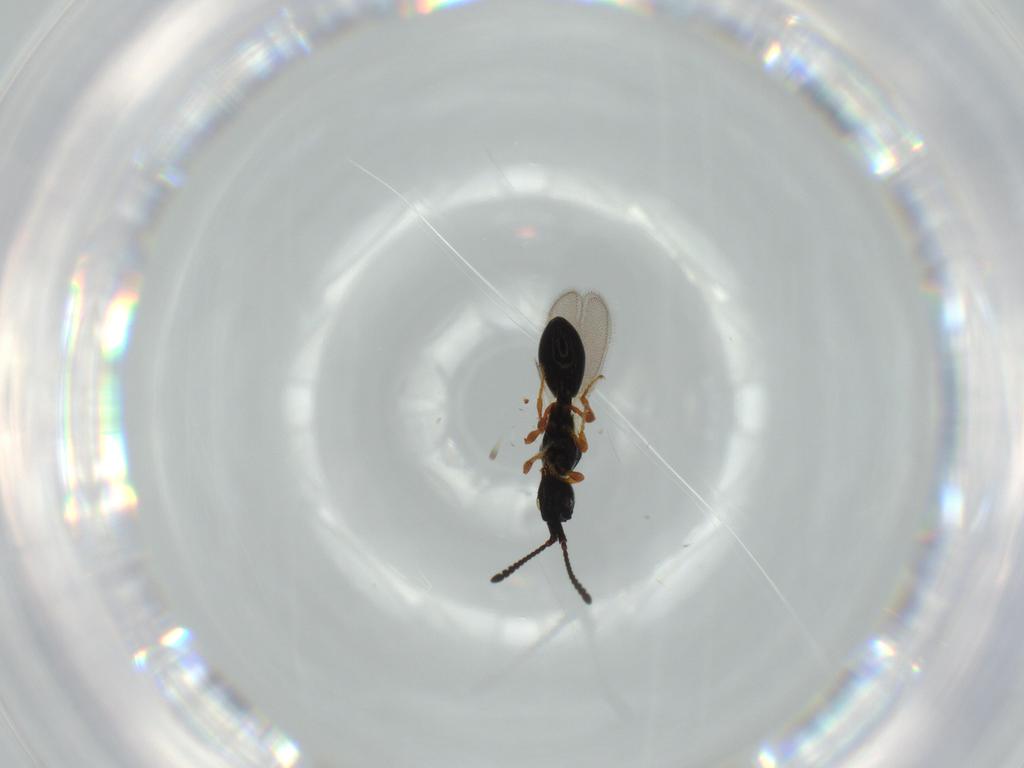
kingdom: Animalia
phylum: Arthropoda
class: Insecta
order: Hymenoptera
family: Diapriidae
